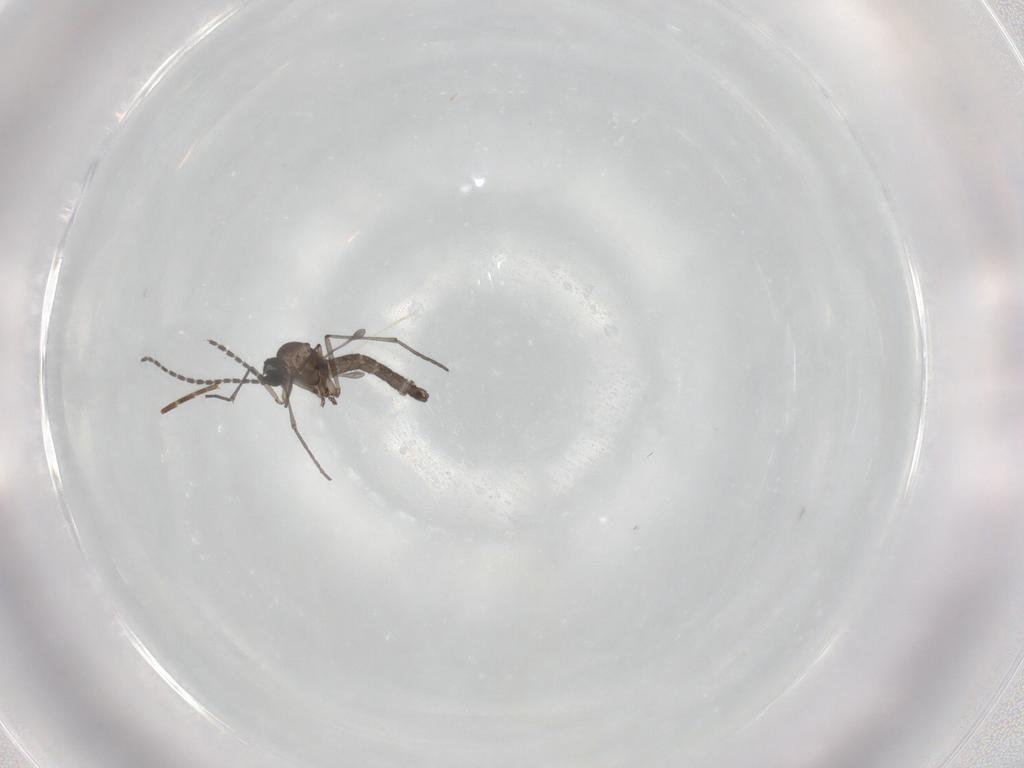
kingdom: Animalia
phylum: Arthropoda
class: Insecta
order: Diptera
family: Sciaridae
